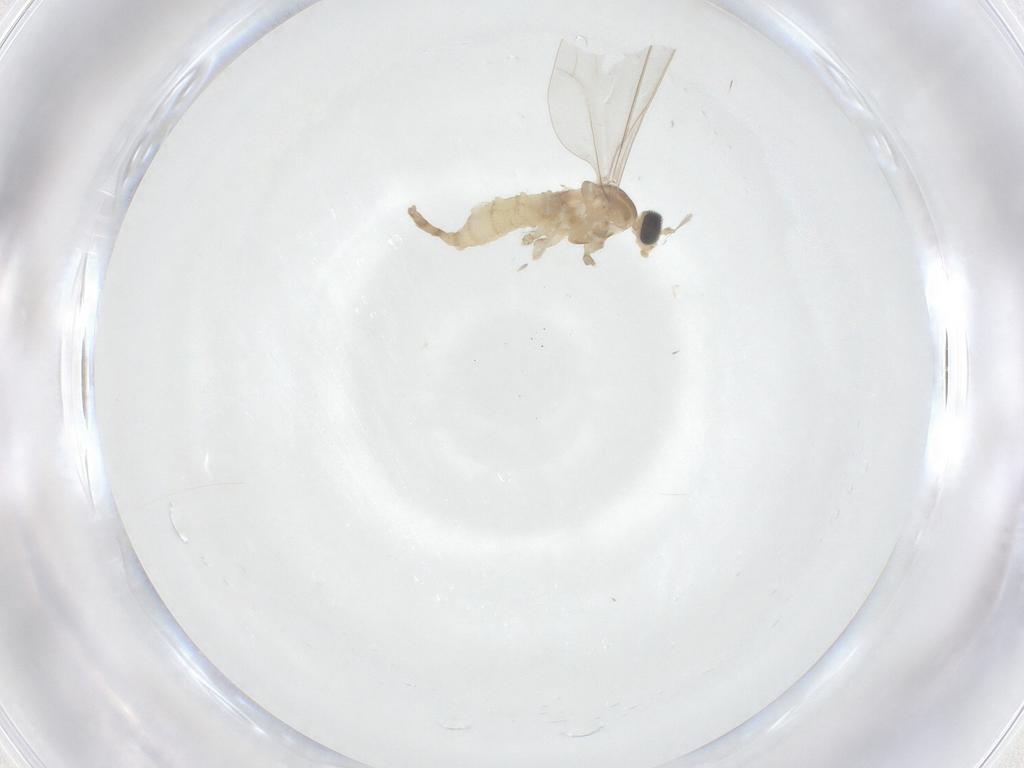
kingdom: Animalia
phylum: Arthropoda
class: Insecta
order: Diptera
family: Cecidomyiidae
